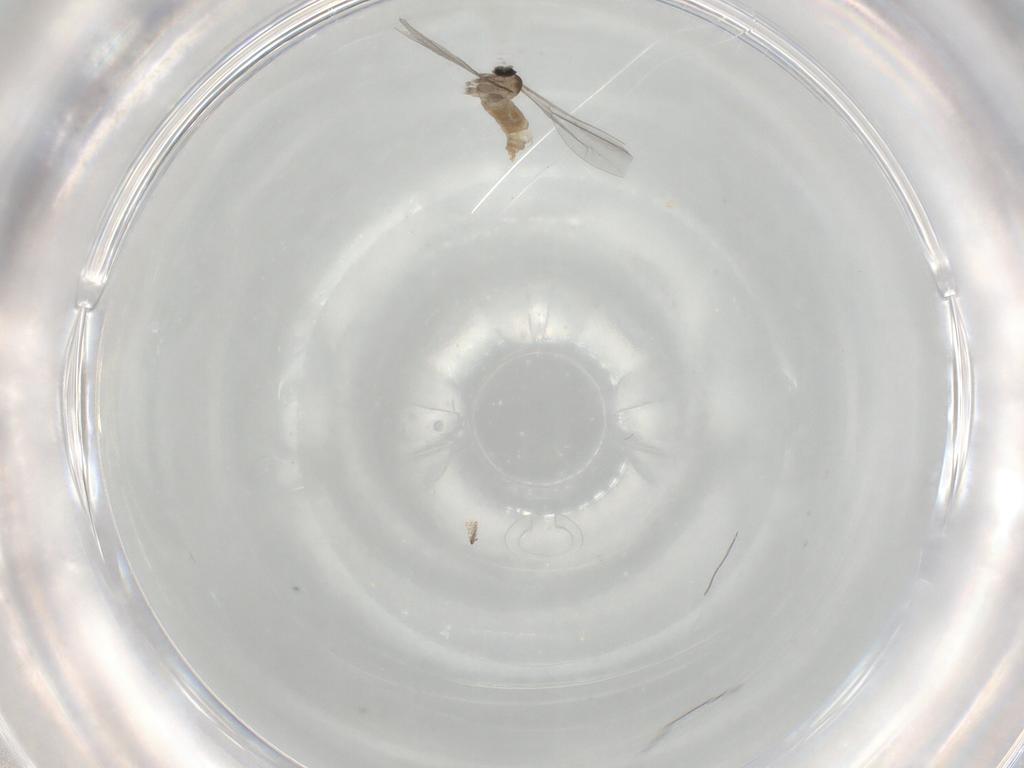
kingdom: Animalia
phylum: Arthropoda
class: Insecta
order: Diptera
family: Cecidomyiidae
